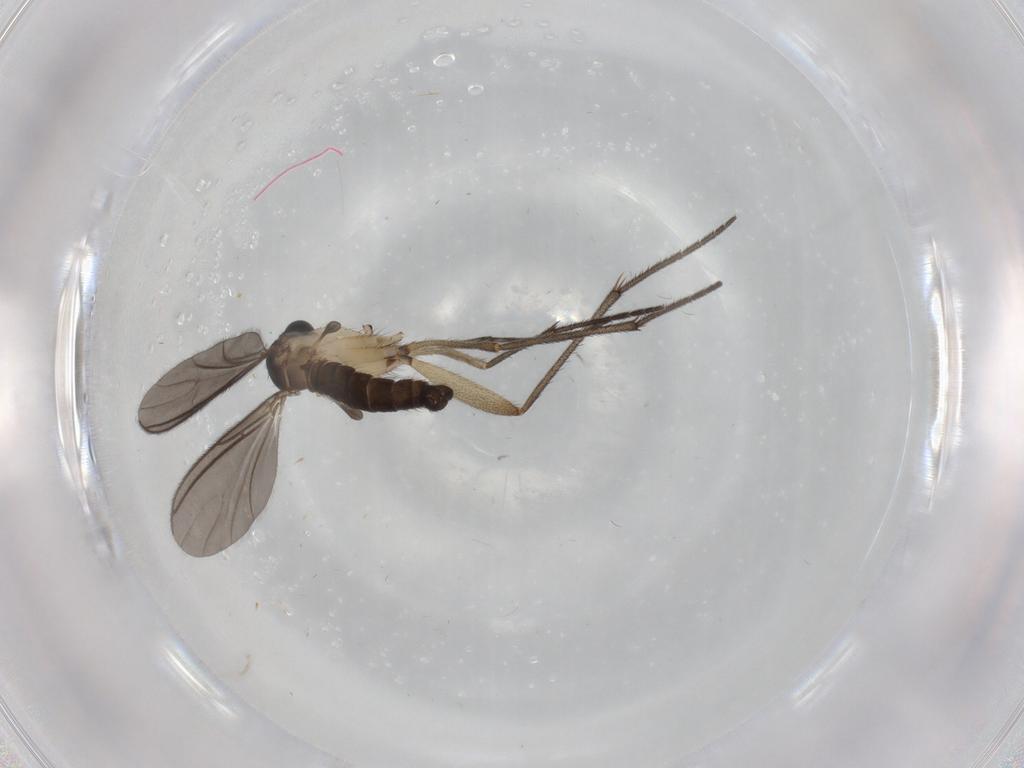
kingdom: Animalia
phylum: Arthropoda
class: Insecta
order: Diptera
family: Sciaridae
